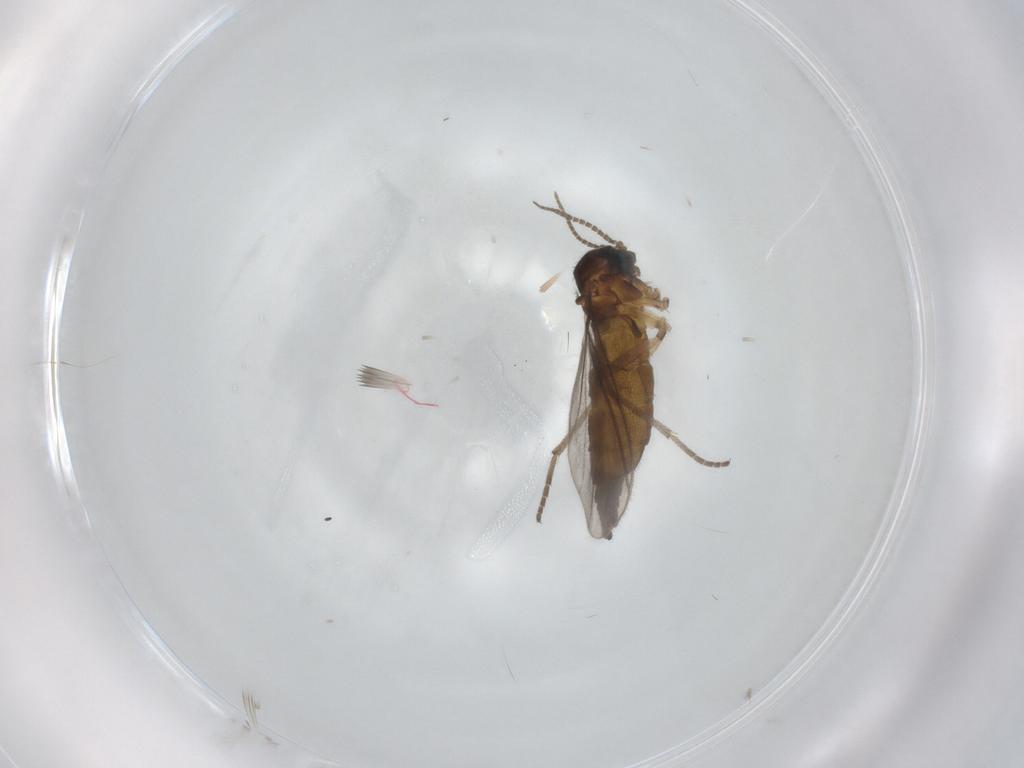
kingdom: Animalia
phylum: Arthropoda
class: Insecta
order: Diptera
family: Sciaridae
